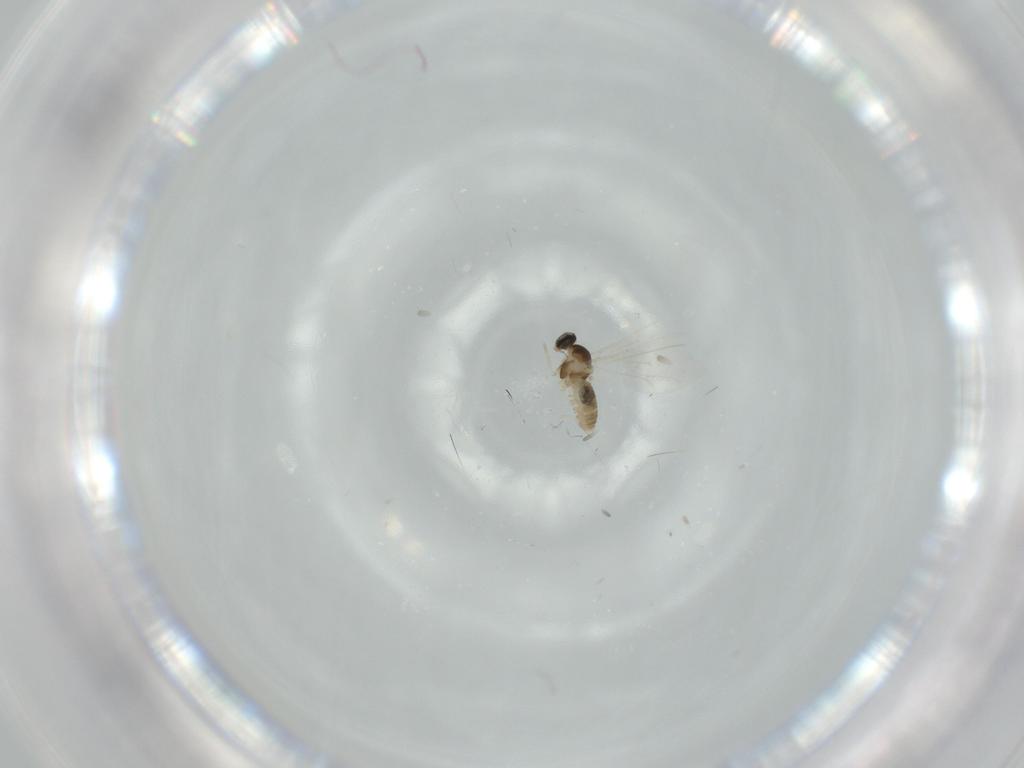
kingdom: Animalia
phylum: Arthropoda
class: Insecta
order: Diptera
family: Cecidomyiidae
